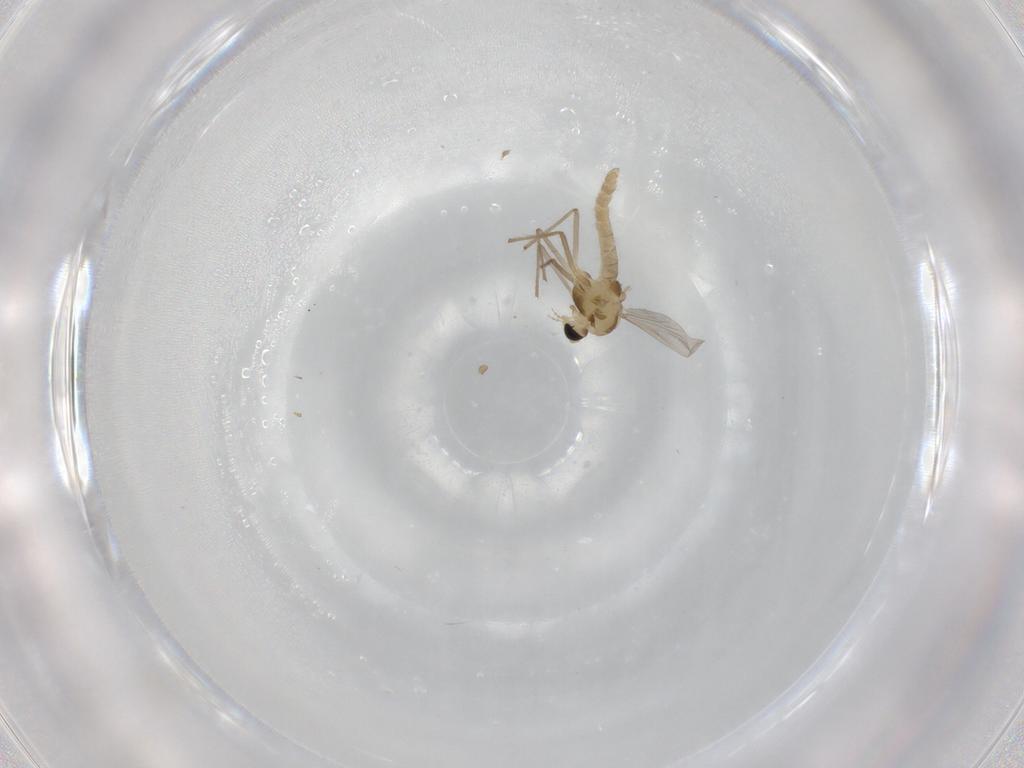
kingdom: Animalia
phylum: Arthropoda
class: Insecta
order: Diptera
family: Chironomidae
